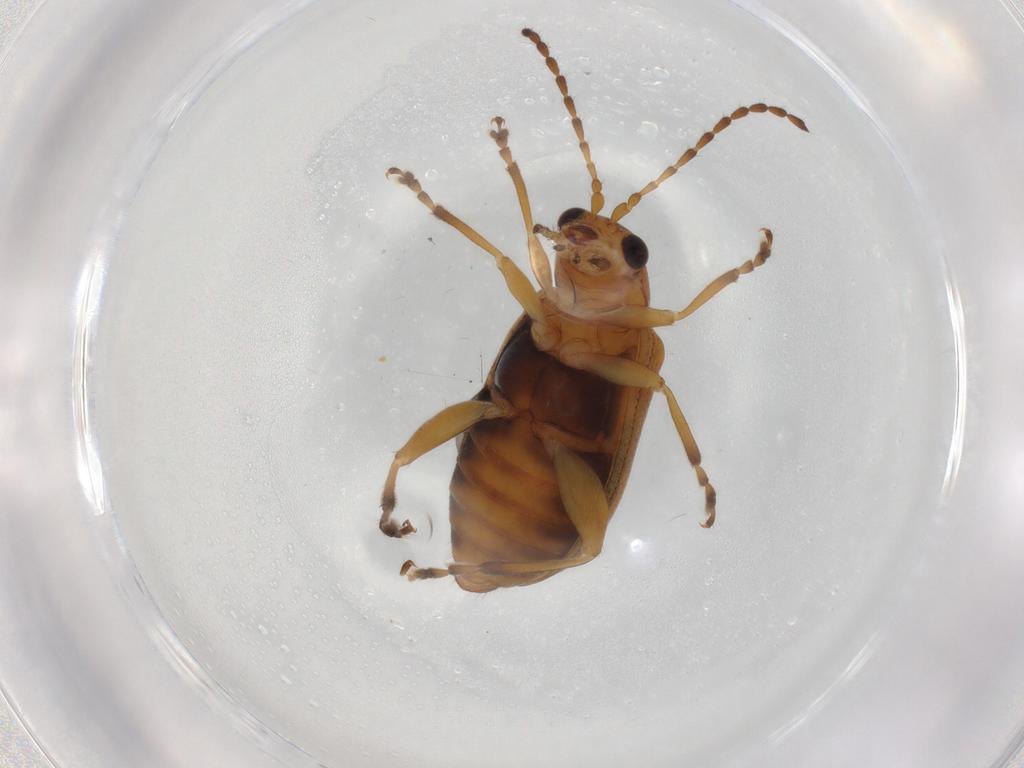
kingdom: Animalia
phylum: Arthropoda
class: Insecta
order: Coleoptera
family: Chrysomelidae
